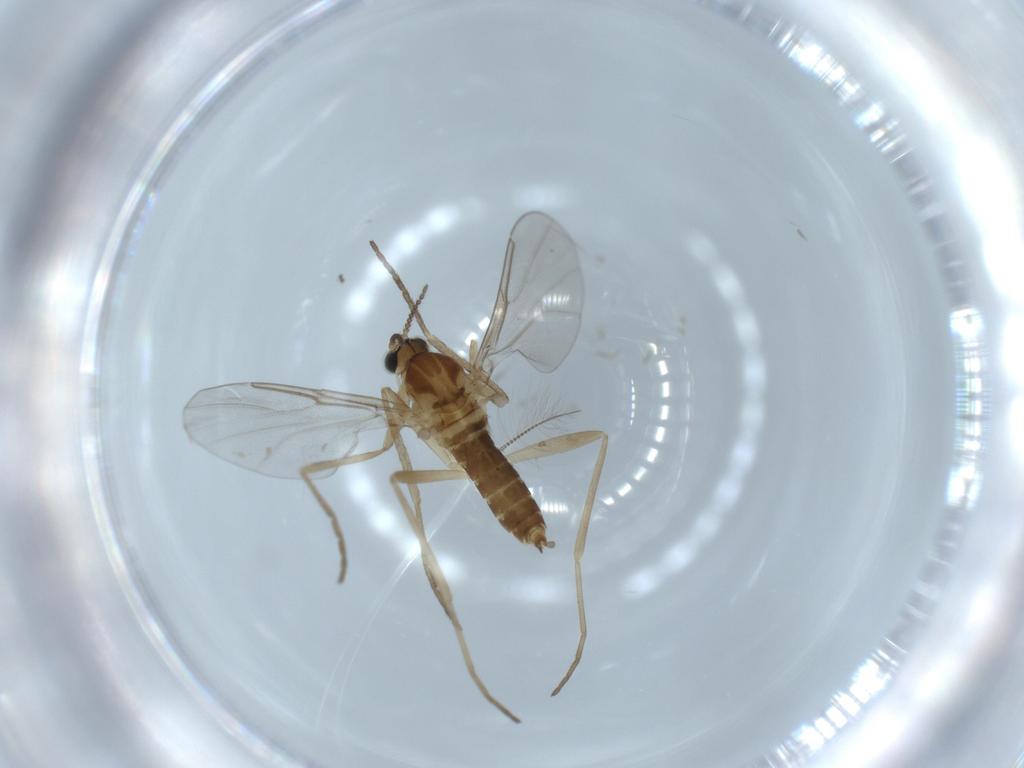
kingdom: Animalia
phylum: Arthropoda
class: Insecta
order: Diptera
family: Cecidomyiidae
